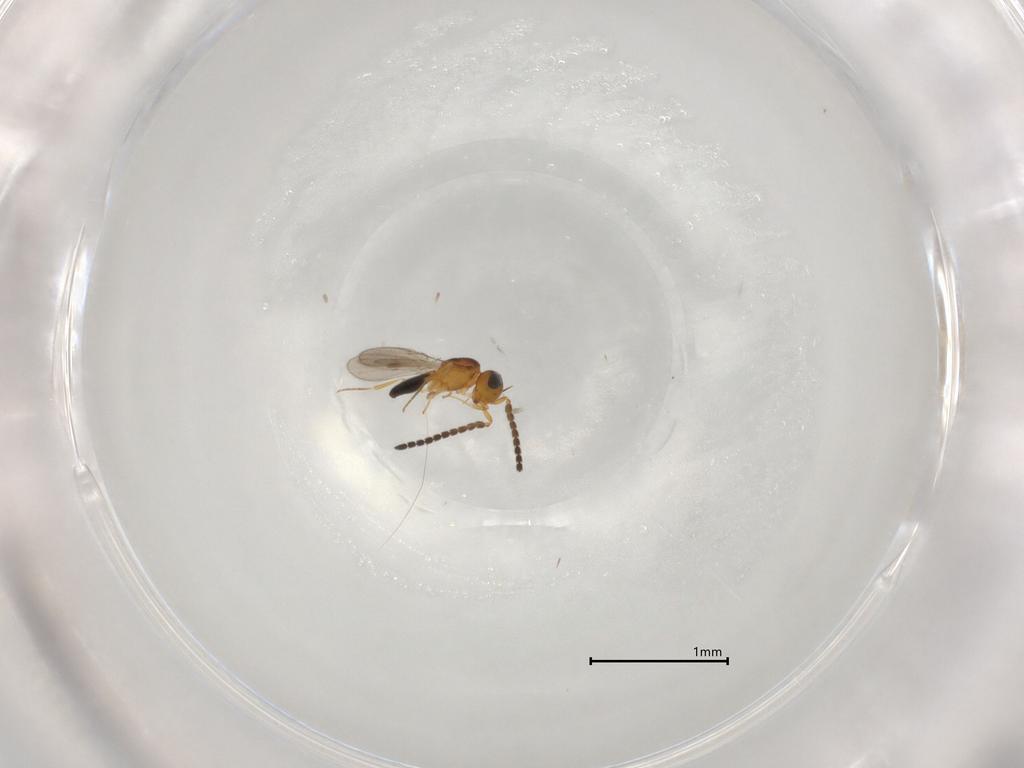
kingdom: Animalia
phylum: Arthropoda
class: Insecta
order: Hymenoptera
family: Scelionidae
